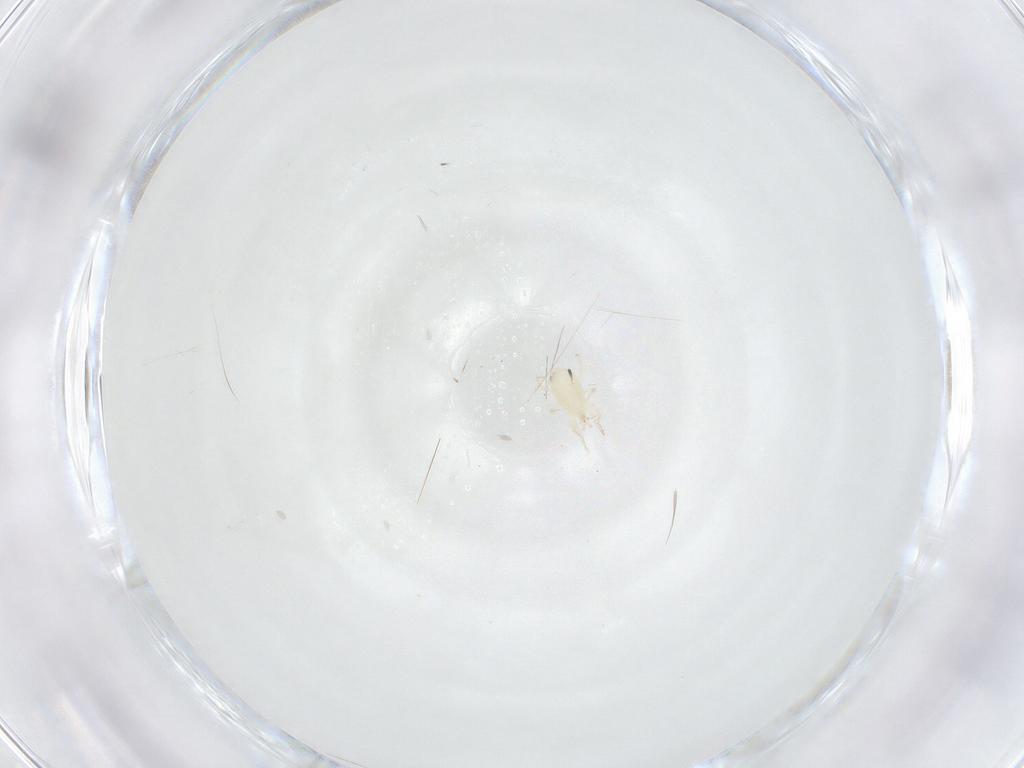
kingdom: Animalia
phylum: Arthropoda
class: Arachnida
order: Mesostigmata
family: Phytoseiidae
